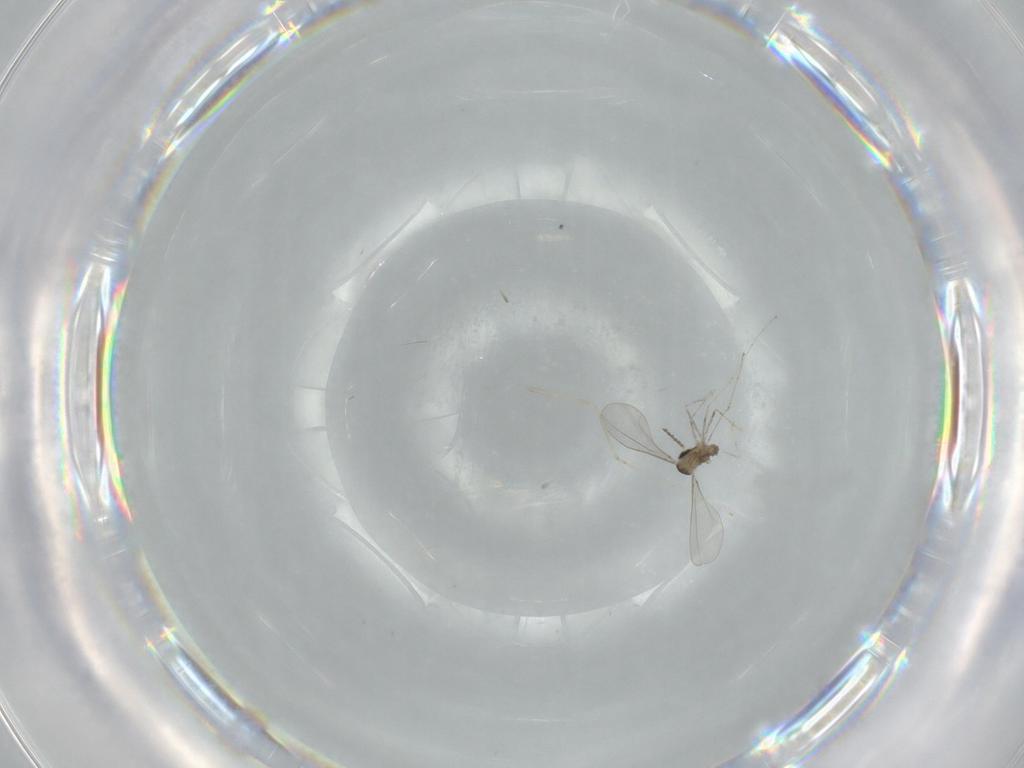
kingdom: Animalia
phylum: Arthropoda
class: Insecta
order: Diptera
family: Cecidomyiidae
